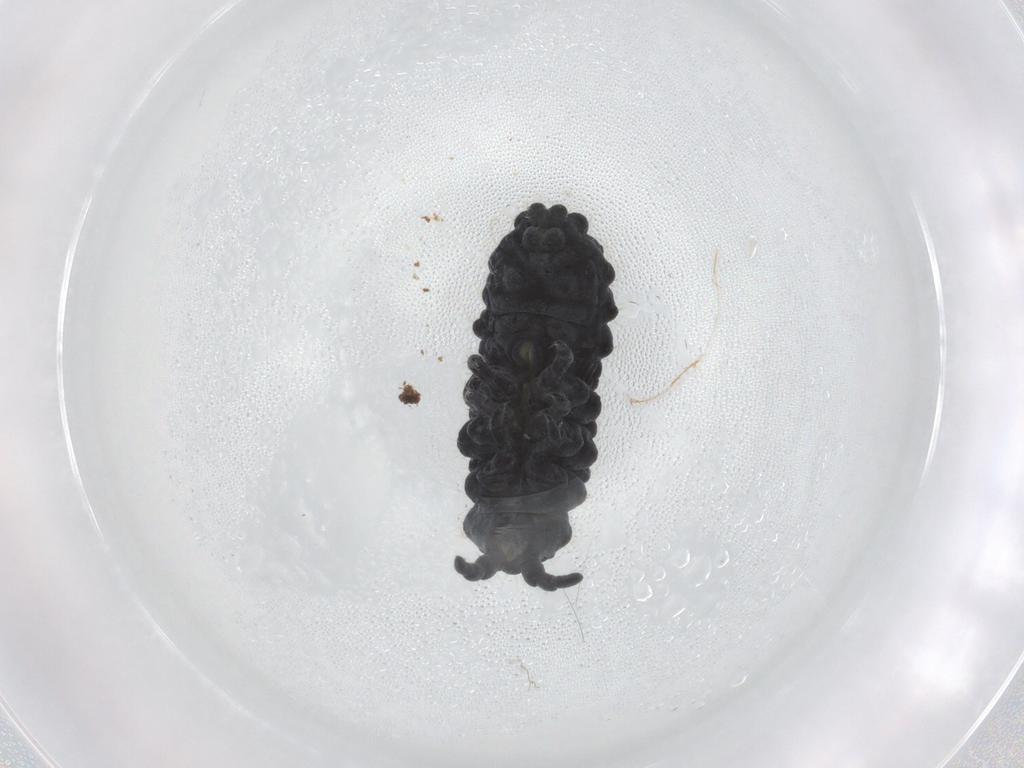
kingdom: Animalia
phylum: Arthropoda
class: Collembola
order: Poduromorpha
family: Neanuridae
